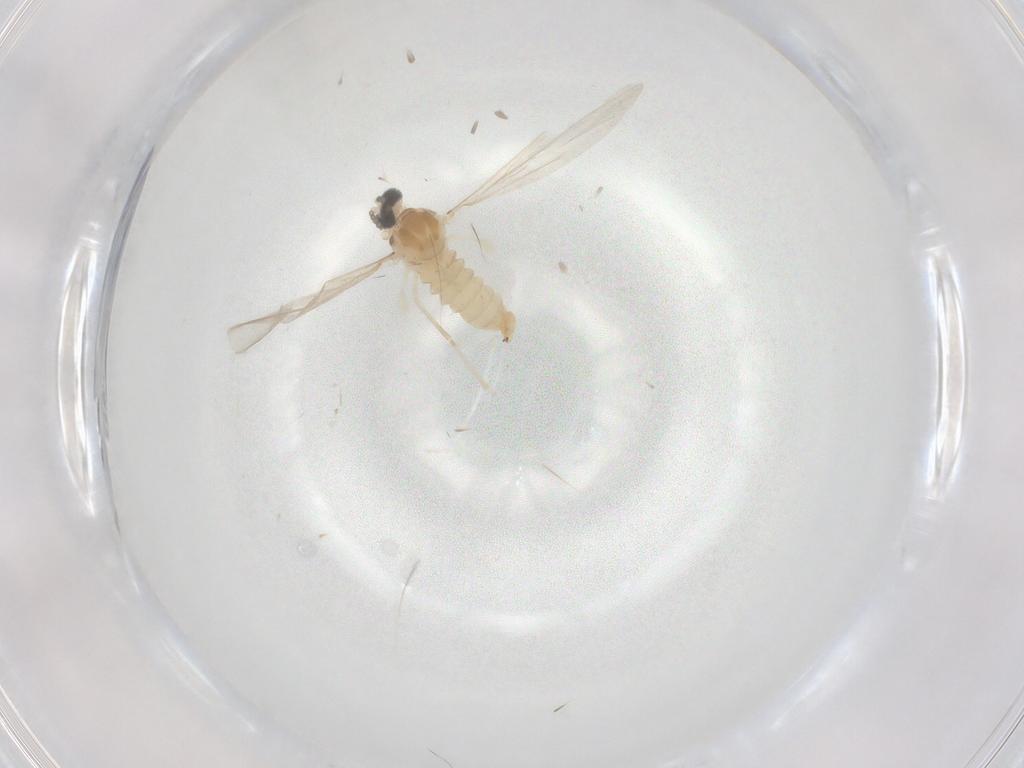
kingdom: Animalia
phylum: Arthropoda
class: Insecta
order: Diptera
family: Cecidomyiidae
